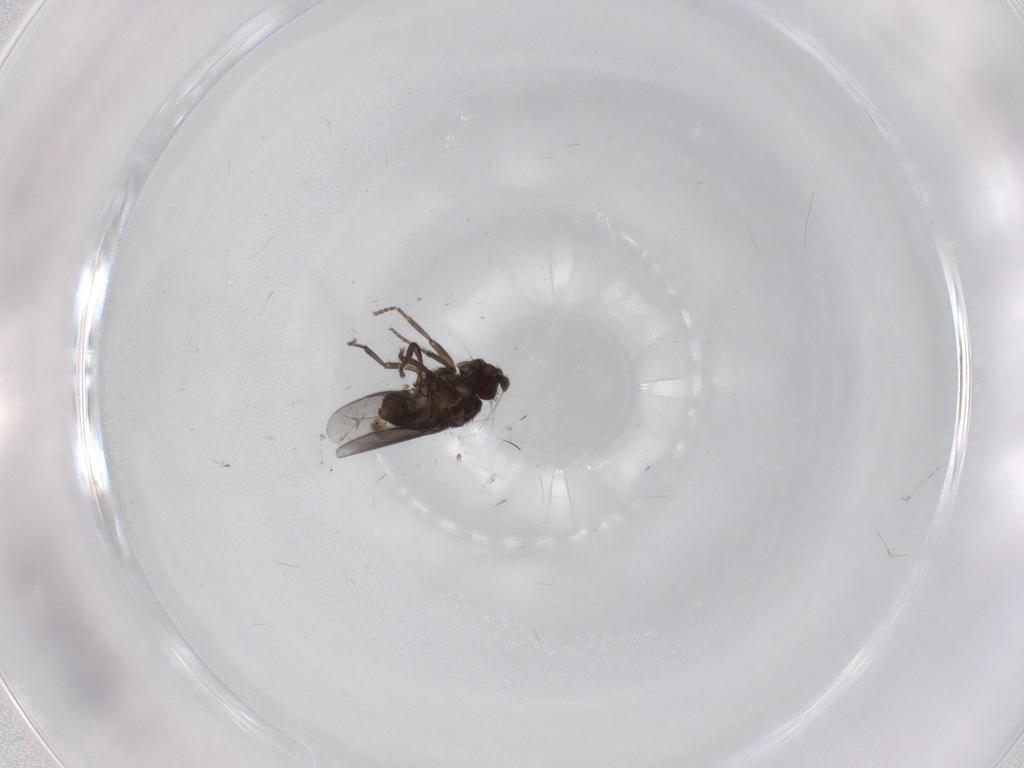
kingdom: Animalia
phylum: Arthropoda
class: Insecta
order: Diptera
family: Sphaeroceridae
